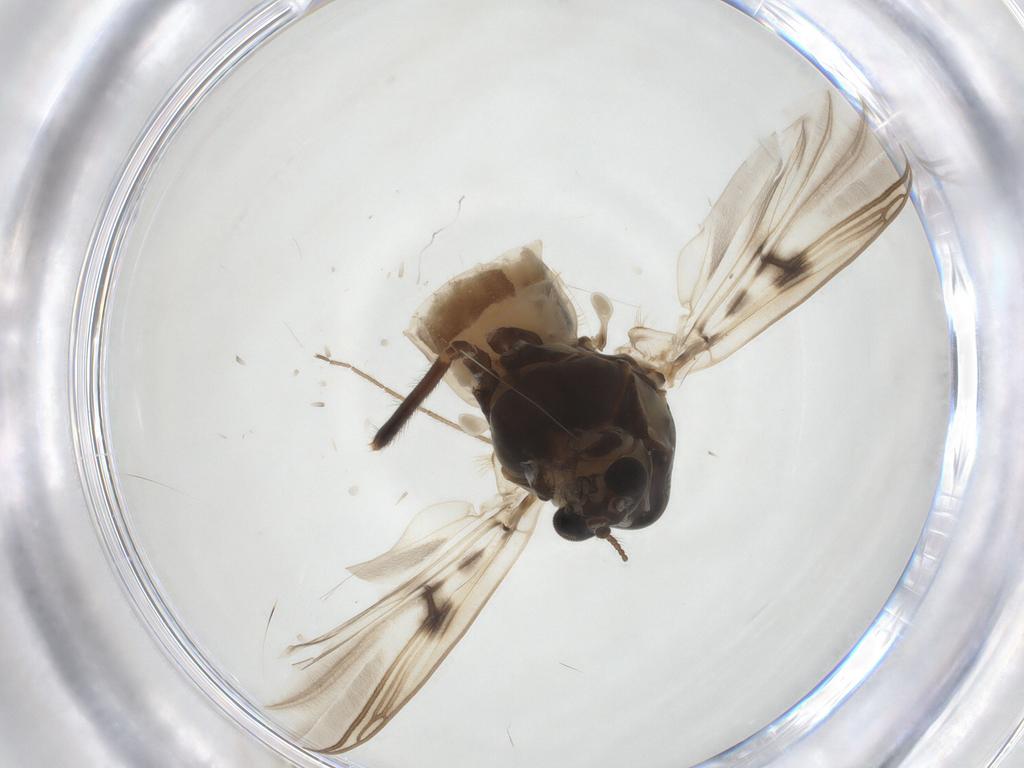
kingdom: Animalia
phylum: Arthropoda
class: Insecta
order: Diptera
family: Chironomidae
